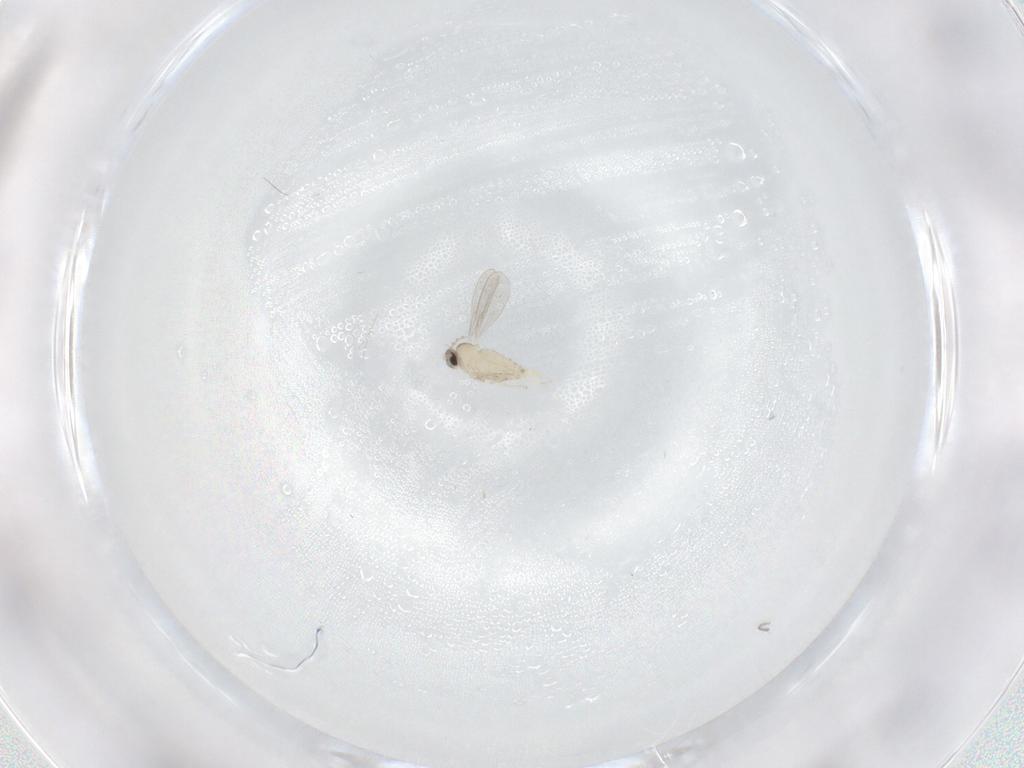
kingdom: Animalia
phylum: Arthropoda
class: Insecta
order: Diptera
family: Cecidomyiidae
